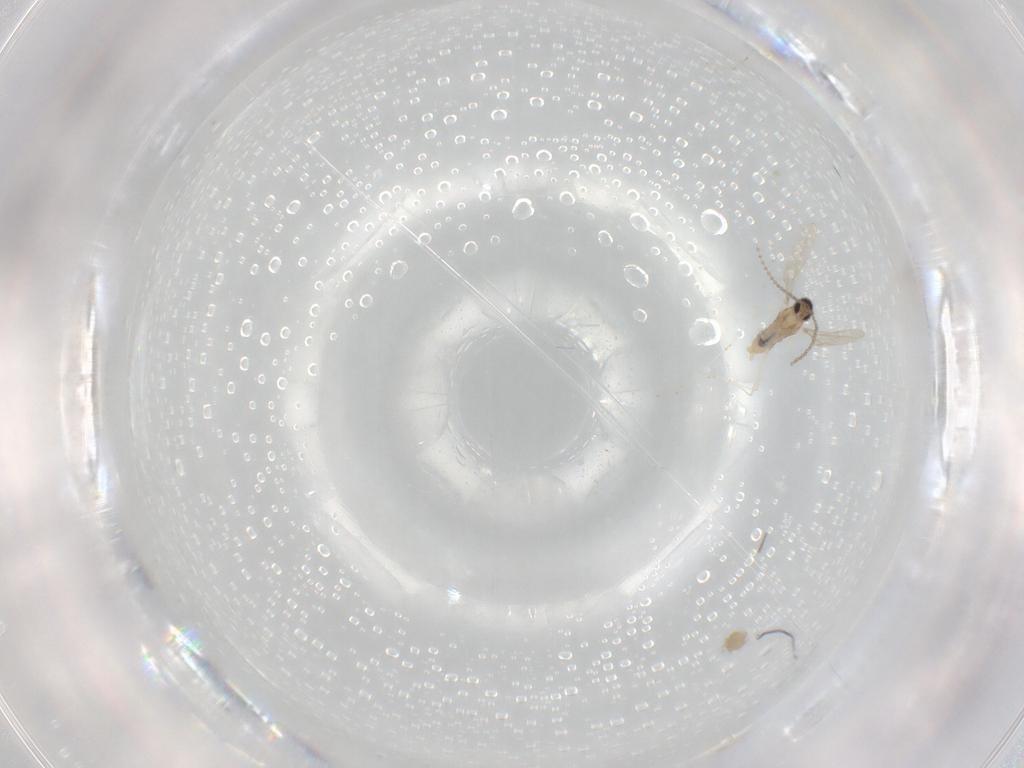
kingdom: Animalia
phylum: Arthropoda
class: Insecta
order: Diptera
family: Cecidomyiidae
